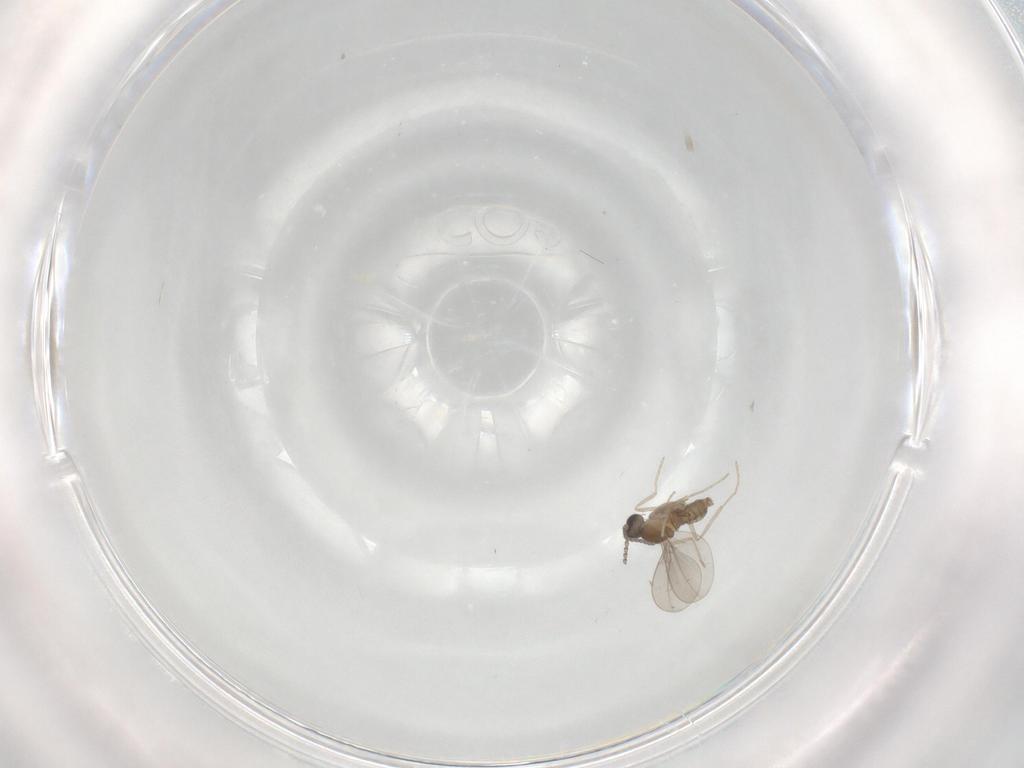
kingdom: Animalia
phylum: Arthropoda
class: Insecta
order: Diptera
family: Cecidomyiidae
